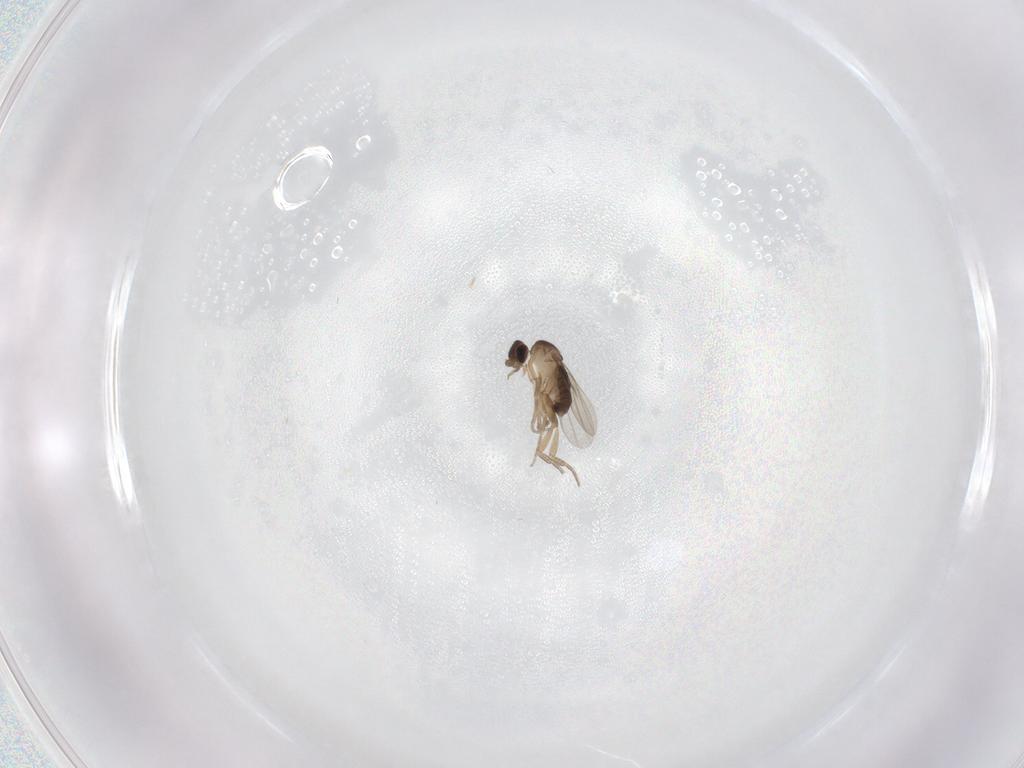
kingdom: Animalia
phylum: Arthropoda
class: Insecta
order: Diptera
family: Phoridae
